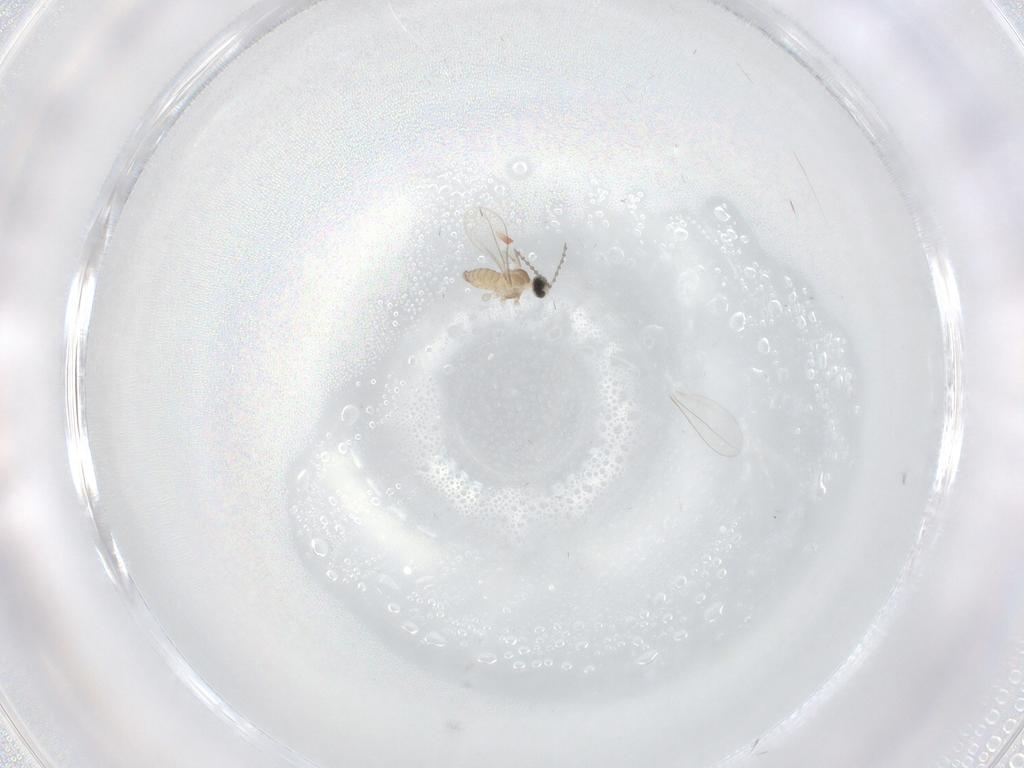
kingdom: Animalia
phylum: Arthropoda
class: Insecta
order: Diptera
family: Cecidomyiidae
